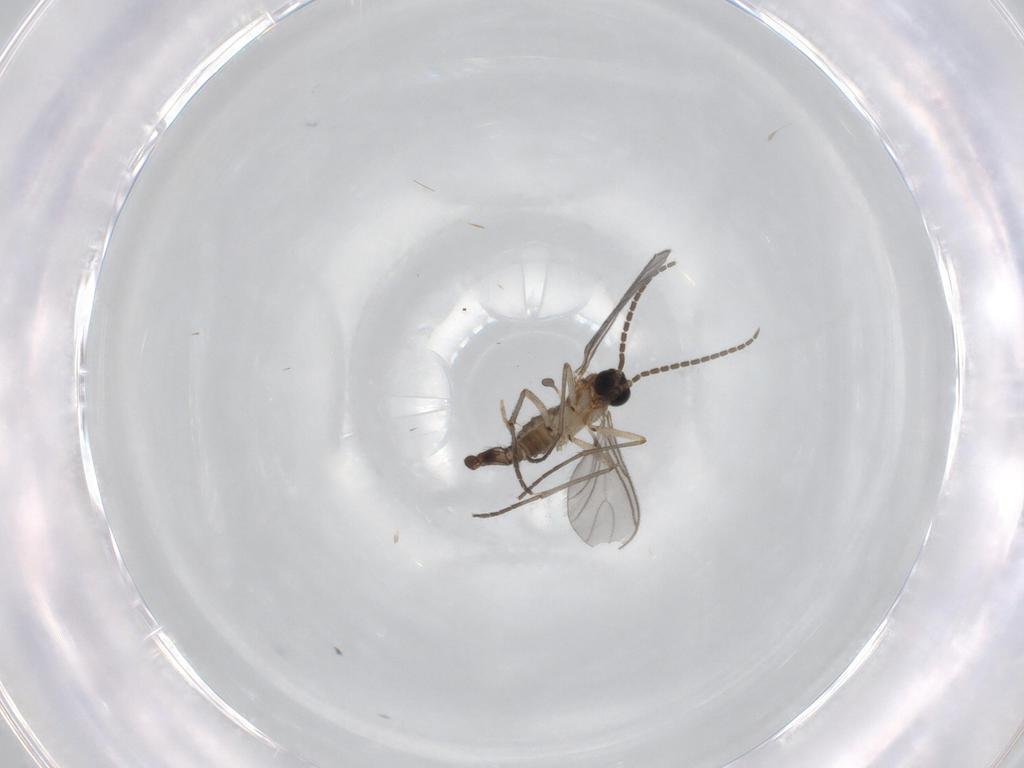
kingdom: Animalia
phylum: Arthropoda
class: Insecta
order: Diptera
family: Sciaridae
